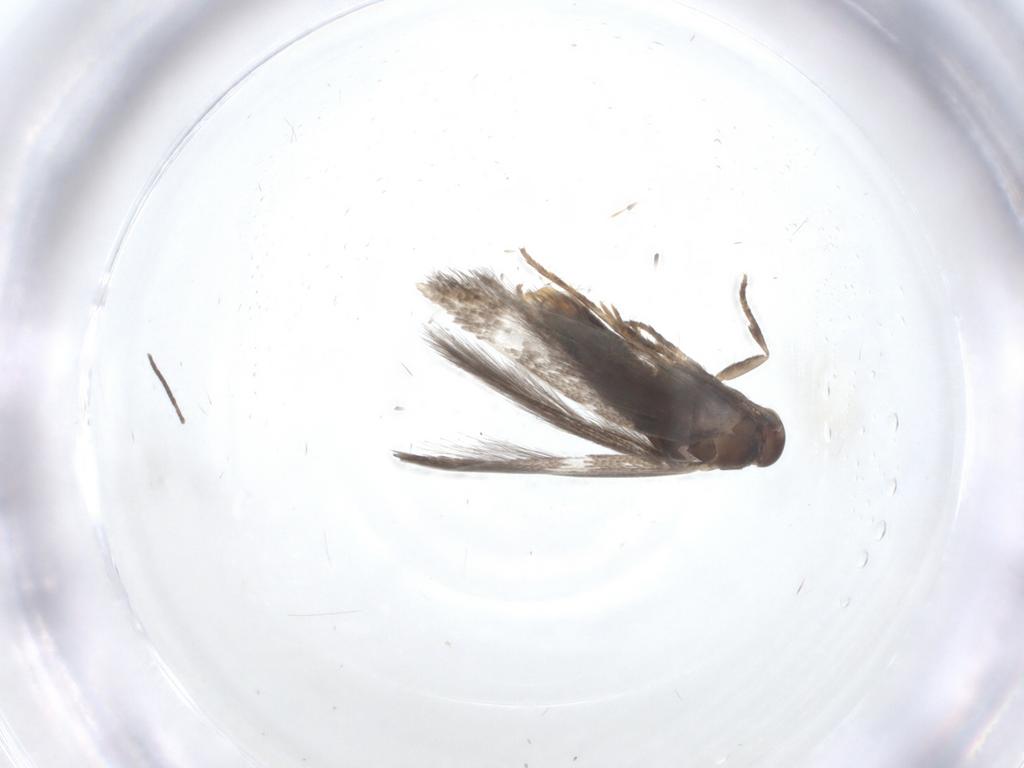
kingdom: Animalia
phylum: Arthropoda
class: Insecta
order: Lepidoptera
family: Elachistidae
